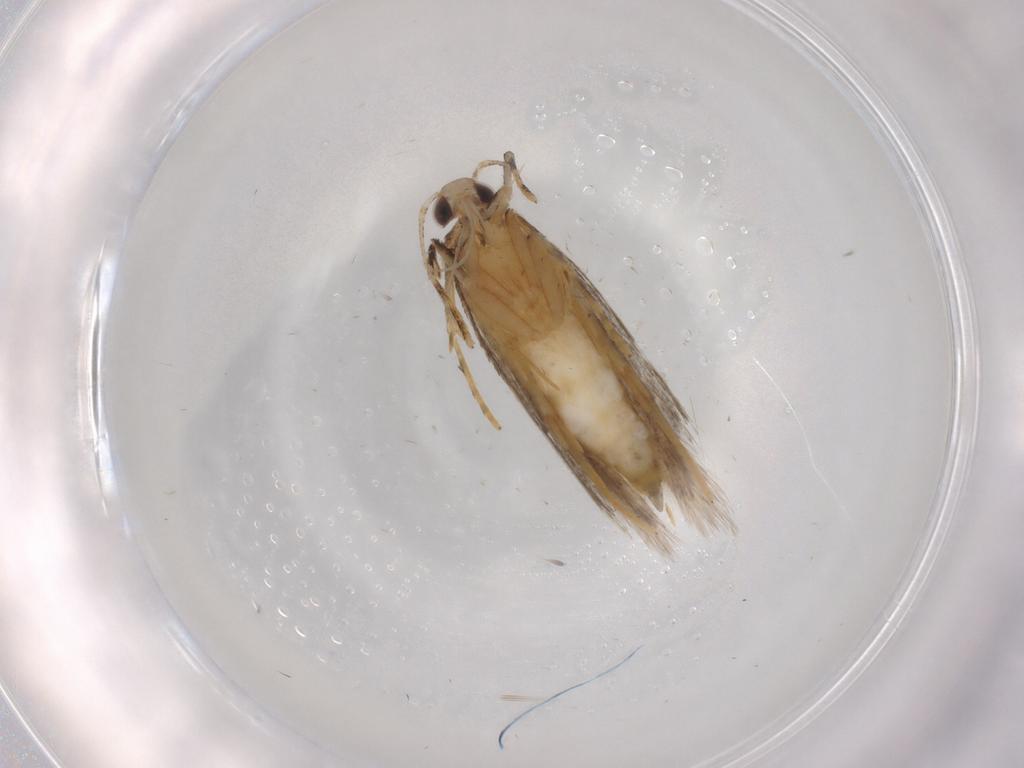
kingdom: Animalia
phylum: Arthropoda
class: Insecta
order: Lepidoptera
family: Autostichidae
